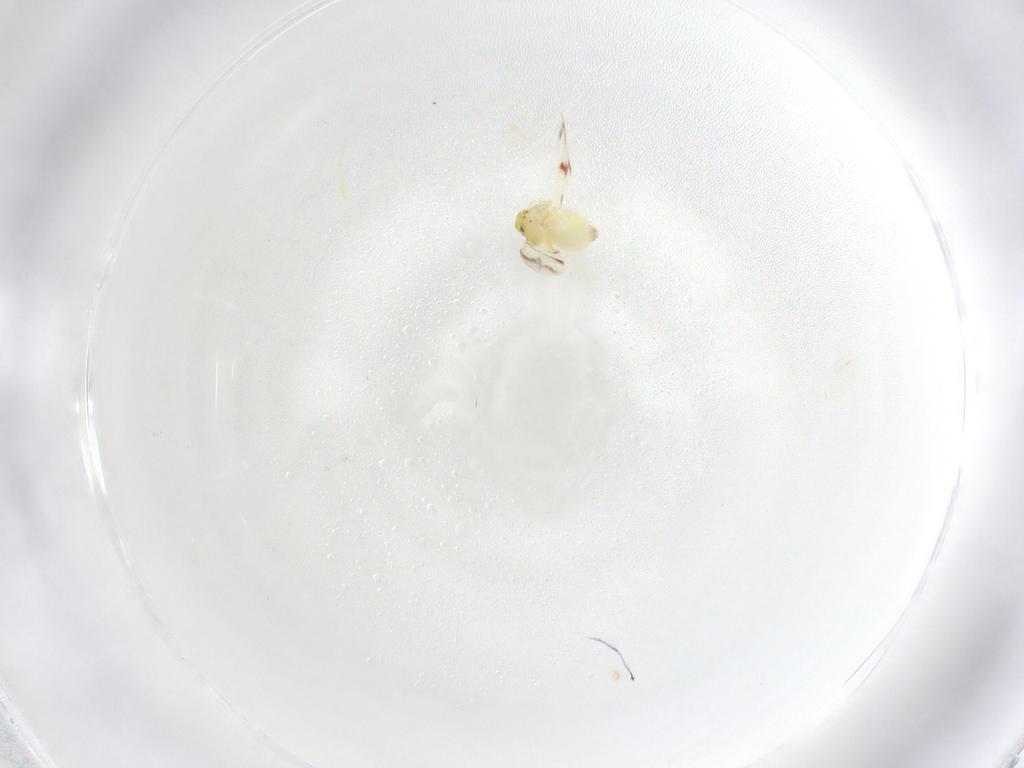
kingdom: Animalia
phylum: Arthropoda
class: Insecta
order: Hemiptera
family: Aleyrodidae
